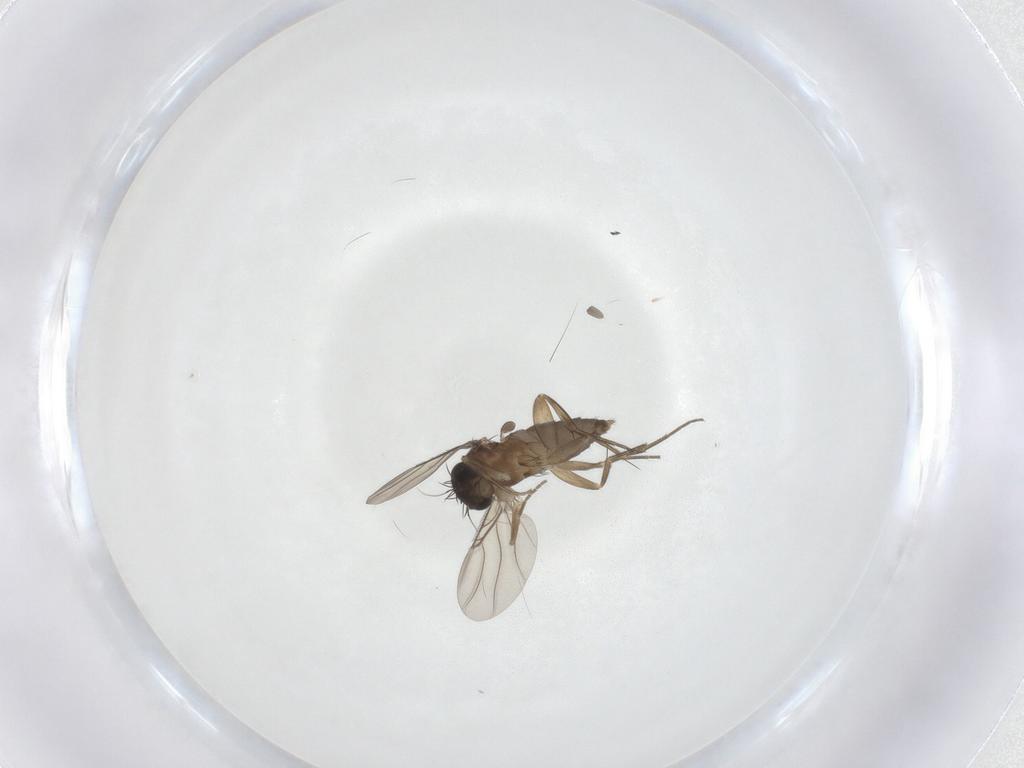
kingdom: Animalia
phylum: Arthropoda
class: Insecta
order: Diptera
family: Phoridae
